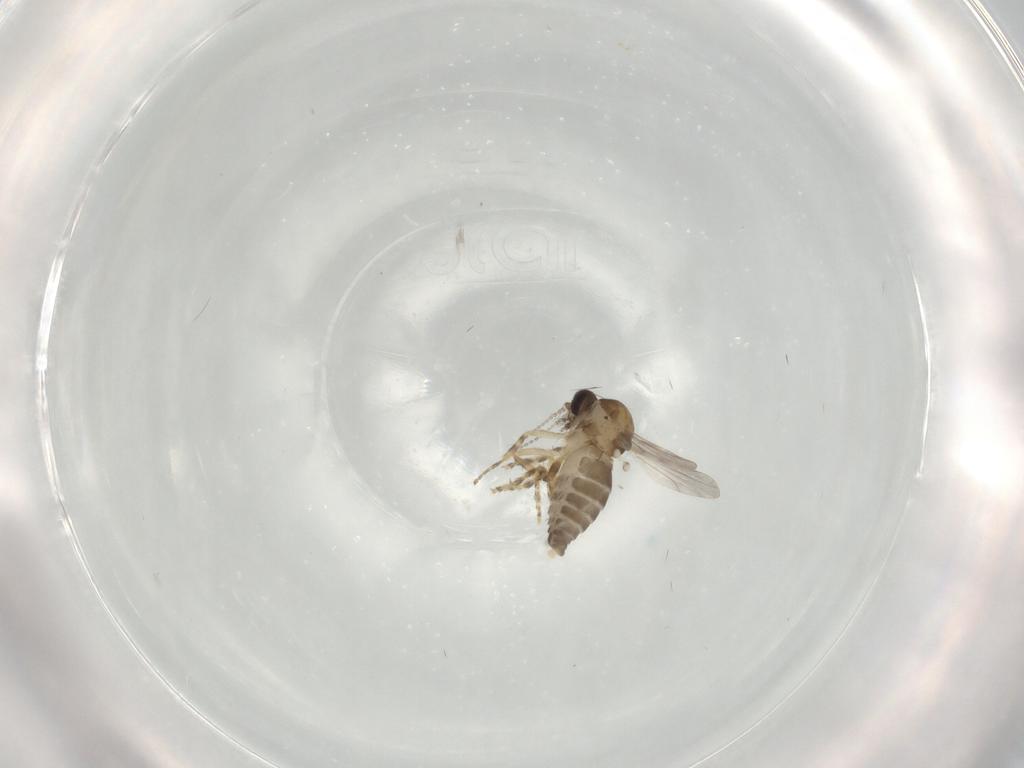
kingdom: Animalia
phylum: Arthropoda
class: Insecta
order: Diptera
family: Ceratopogonidae
